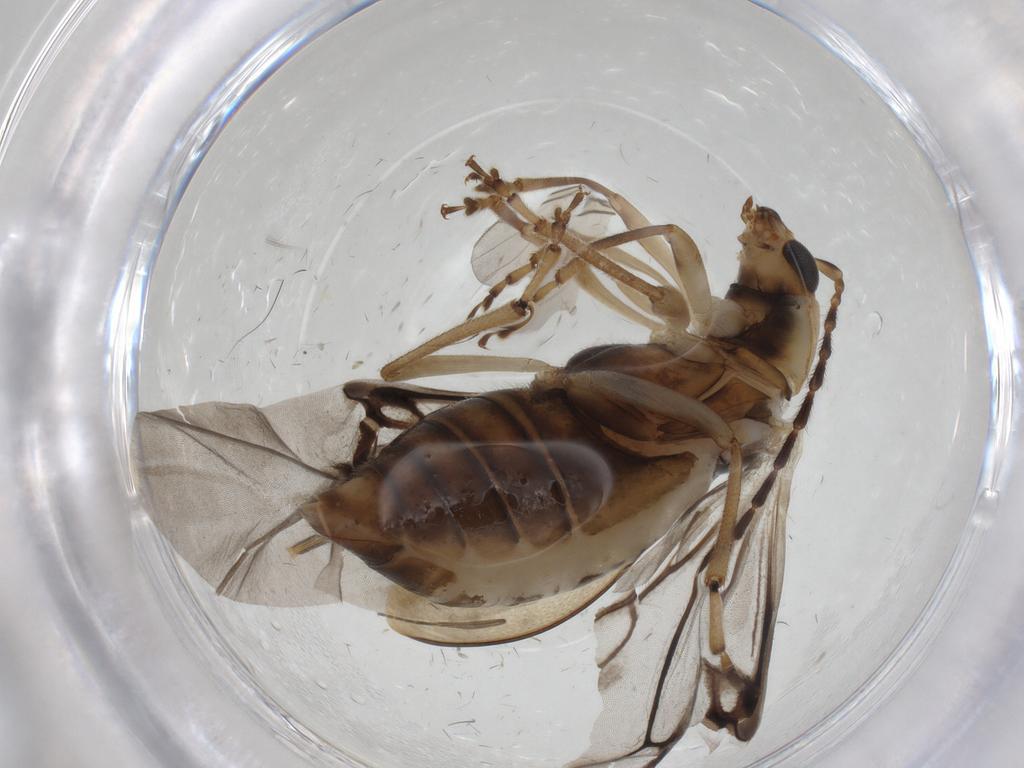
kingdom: Animalia
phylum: Arthropoda
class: Insecta
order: Coleoptera
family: Chrysomelidae
